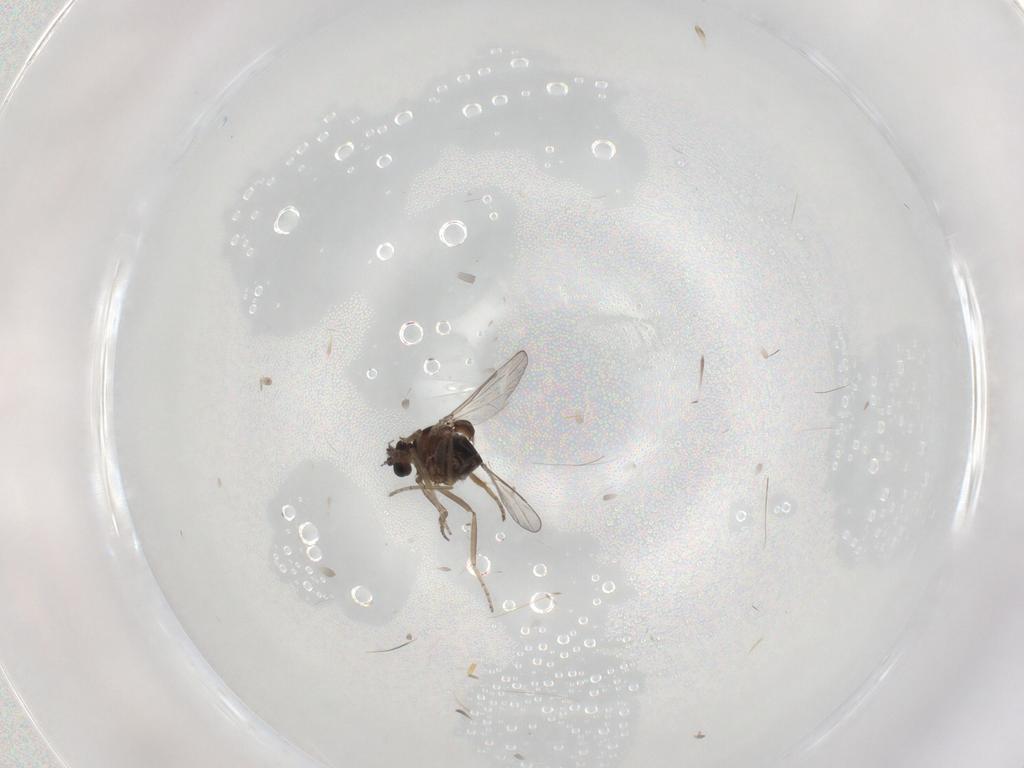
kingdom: Animalia
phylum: Arthropoda
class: Insecta
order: Diptera
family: Ceratopogonidae
